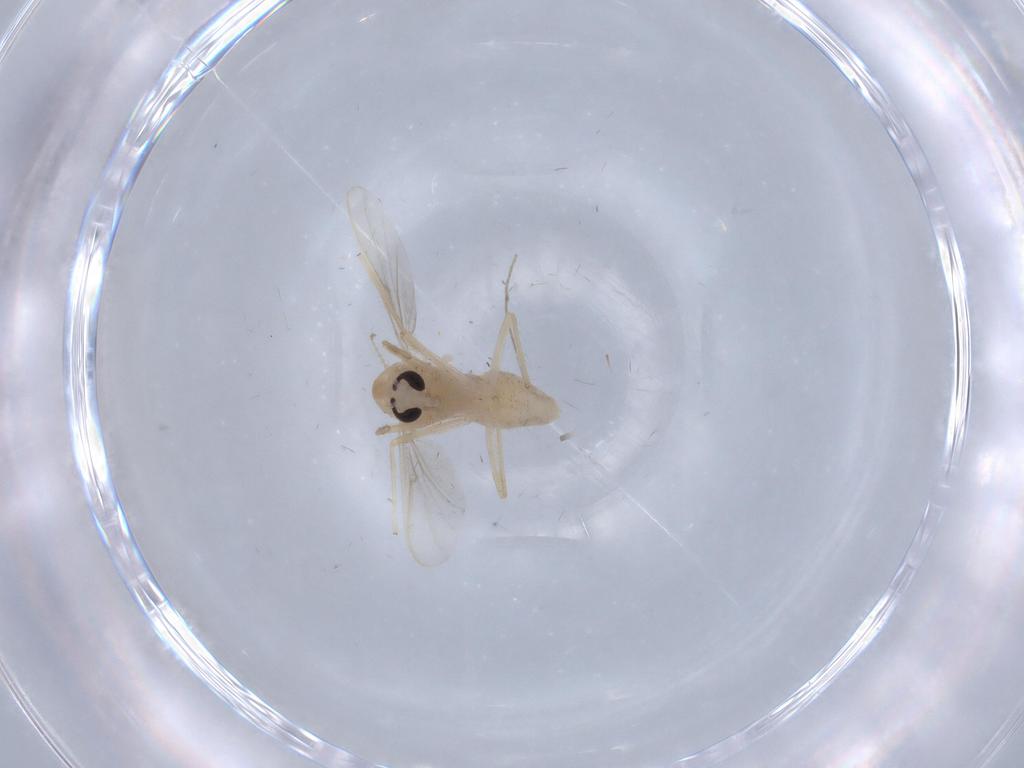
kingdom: Animalia
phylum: Arthropoda
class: Insecta
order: Diptera
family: Chironomidae
